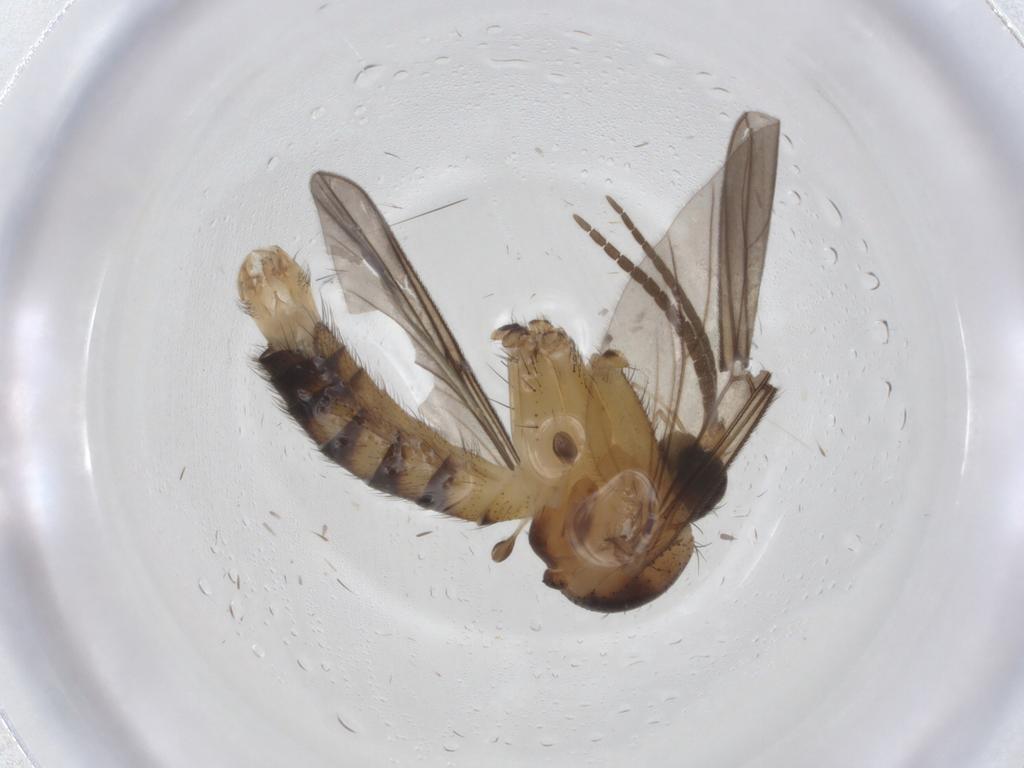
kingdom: Animalia
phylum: Arthropoda
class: Insecta
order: Diptera
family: Phoridae
